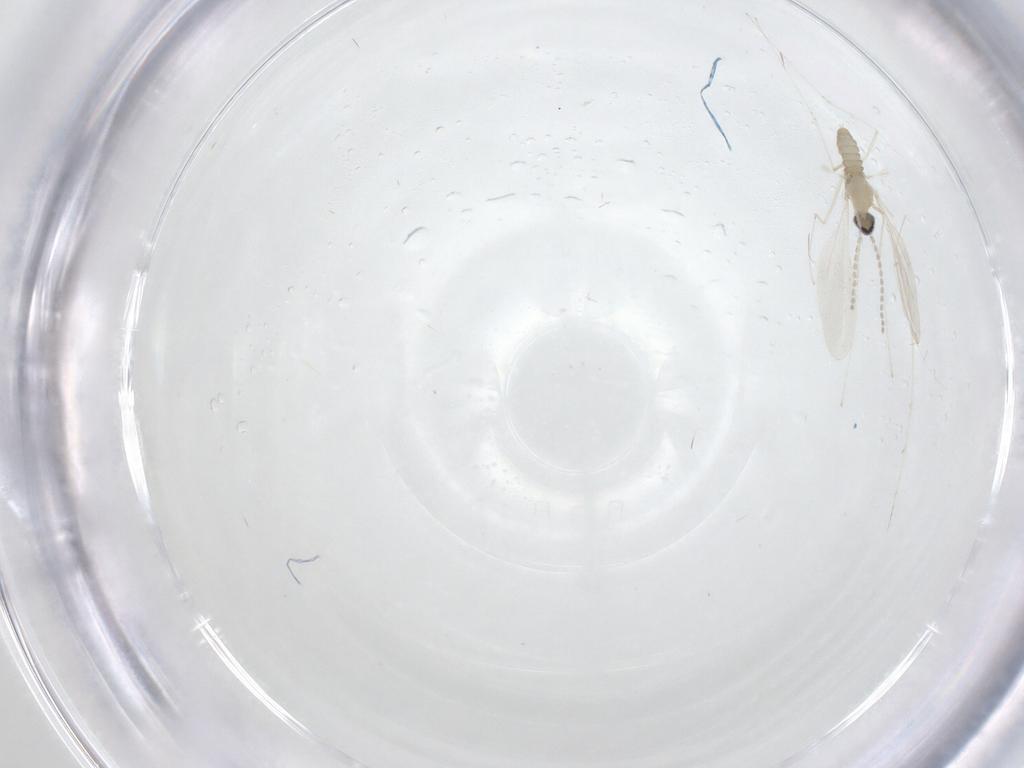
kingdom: Animalia
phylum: Arthropoda
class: Insecta
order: Diptera
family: Cecidomyiidae
